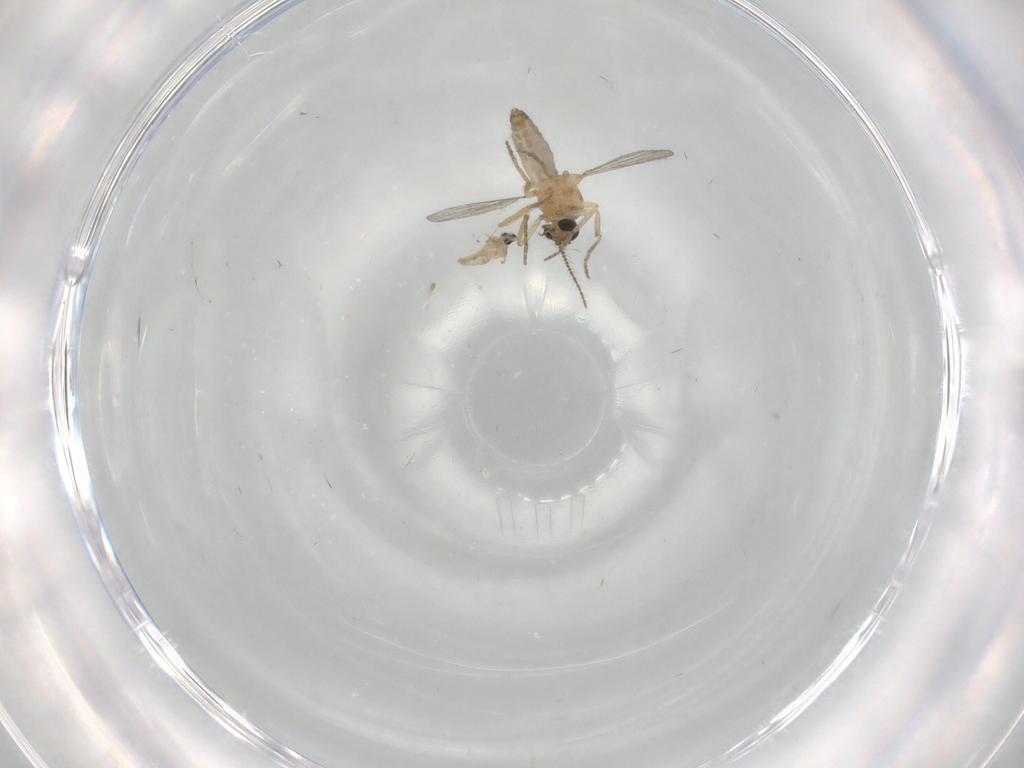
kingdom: Animalia
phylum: Arthropoda
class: Insecta
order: Diptera
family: Cecidomyiidae
